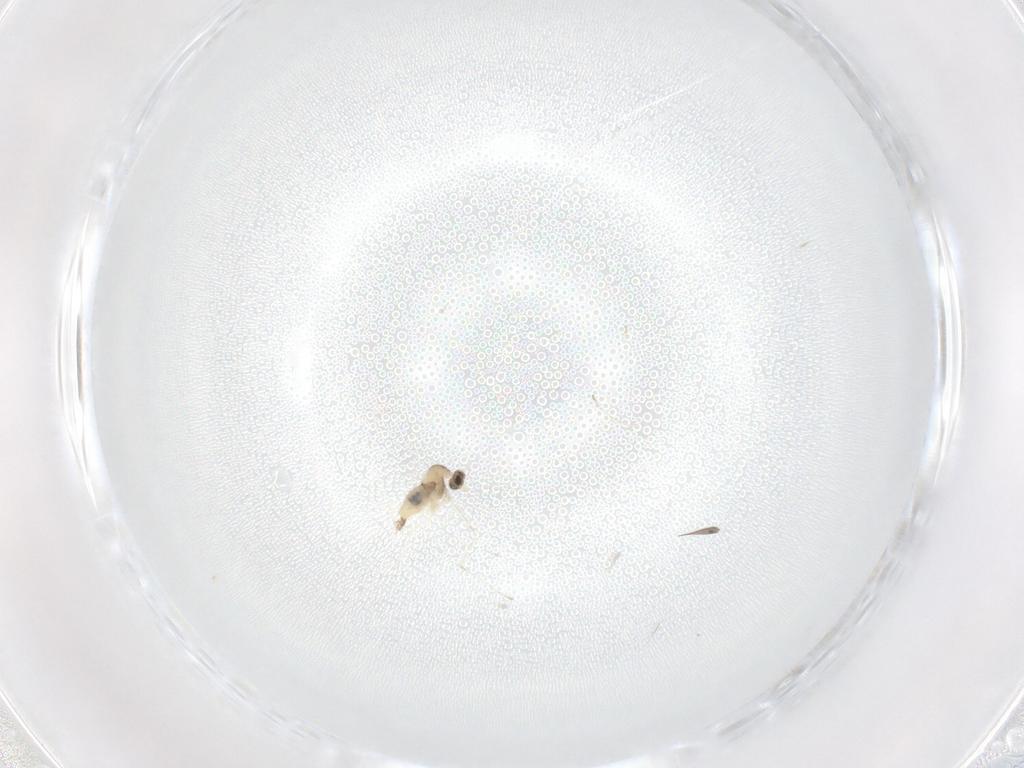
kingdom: Animalia
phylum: Arthropoda
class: Insecta
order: Diptera
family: Cecidomyiidae
